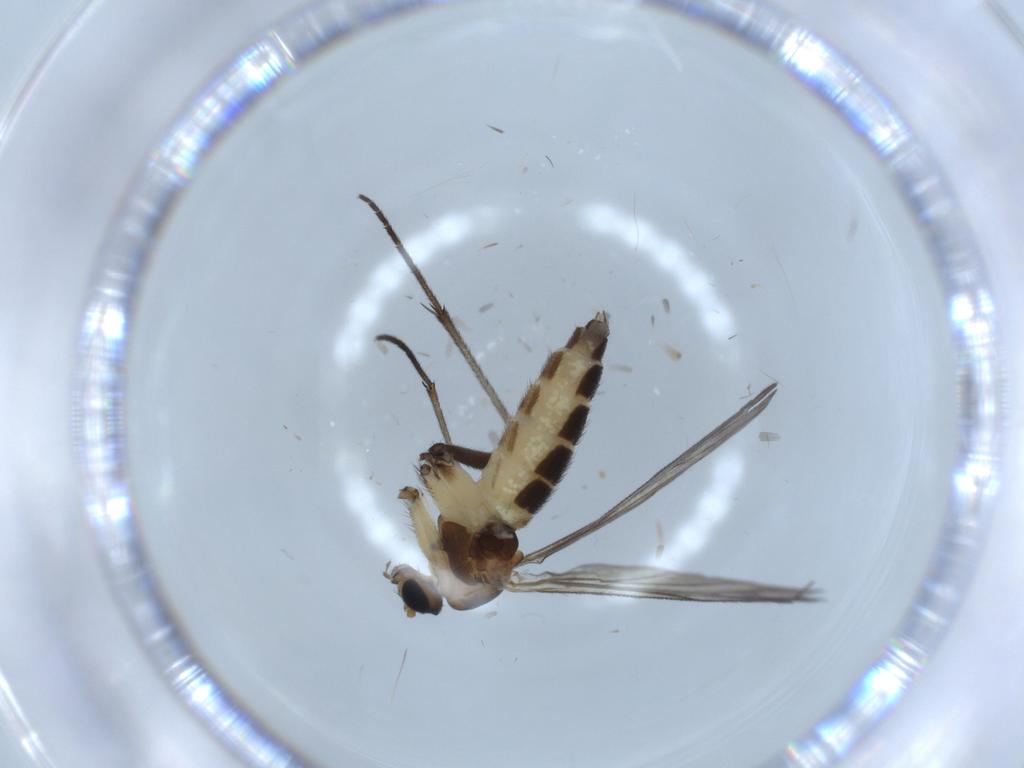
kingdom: Animalia
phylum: Arthropoda
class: Insecta
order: Diptera
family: Sciaridae
